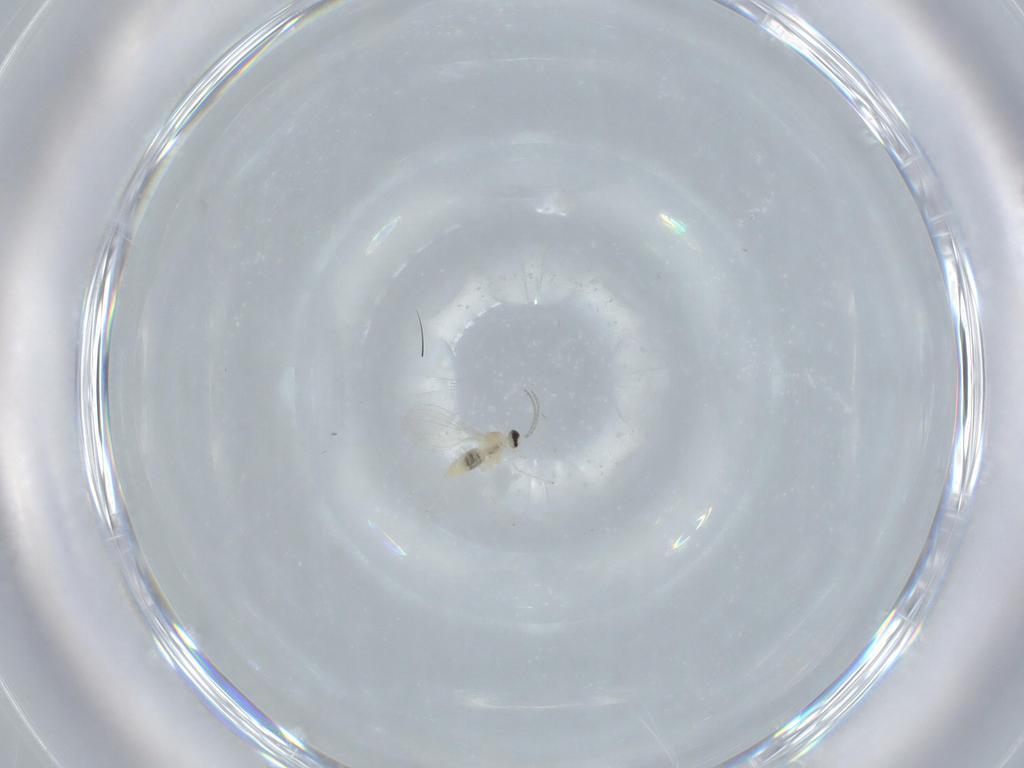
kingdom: Animalia
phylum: Arthropoda
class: Insecta
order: Diptera
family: Cecidomyiidae
